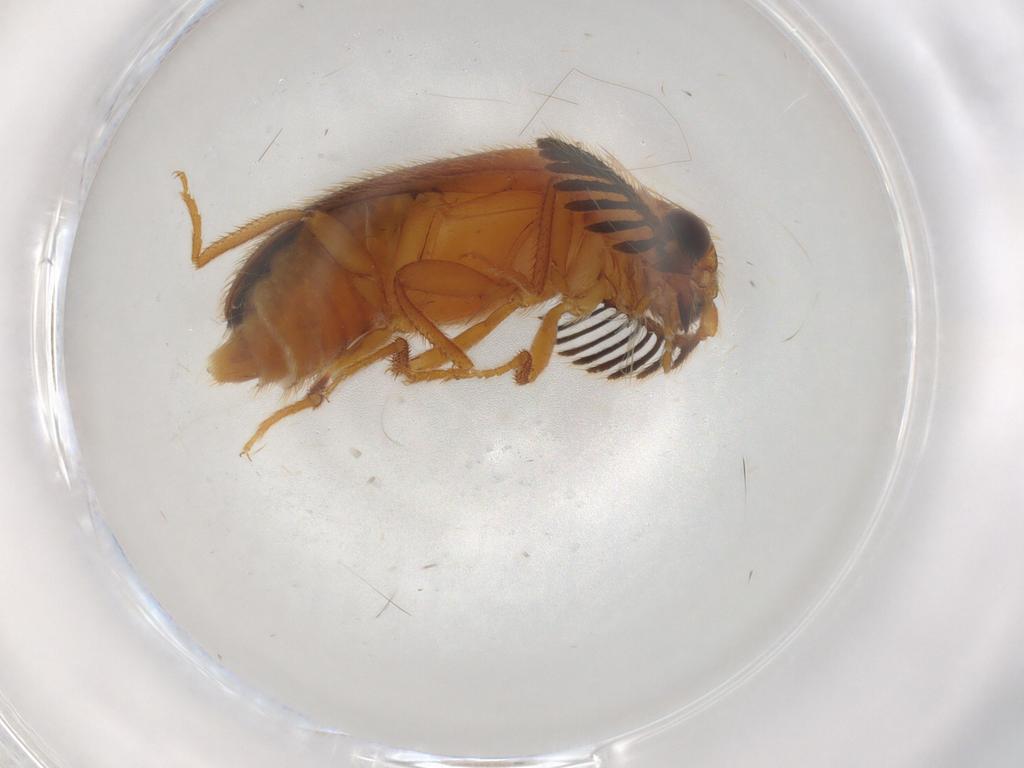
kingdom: Animalia
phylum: Arthropoda
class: Insecta
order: Coleoptera
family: Elateridae
